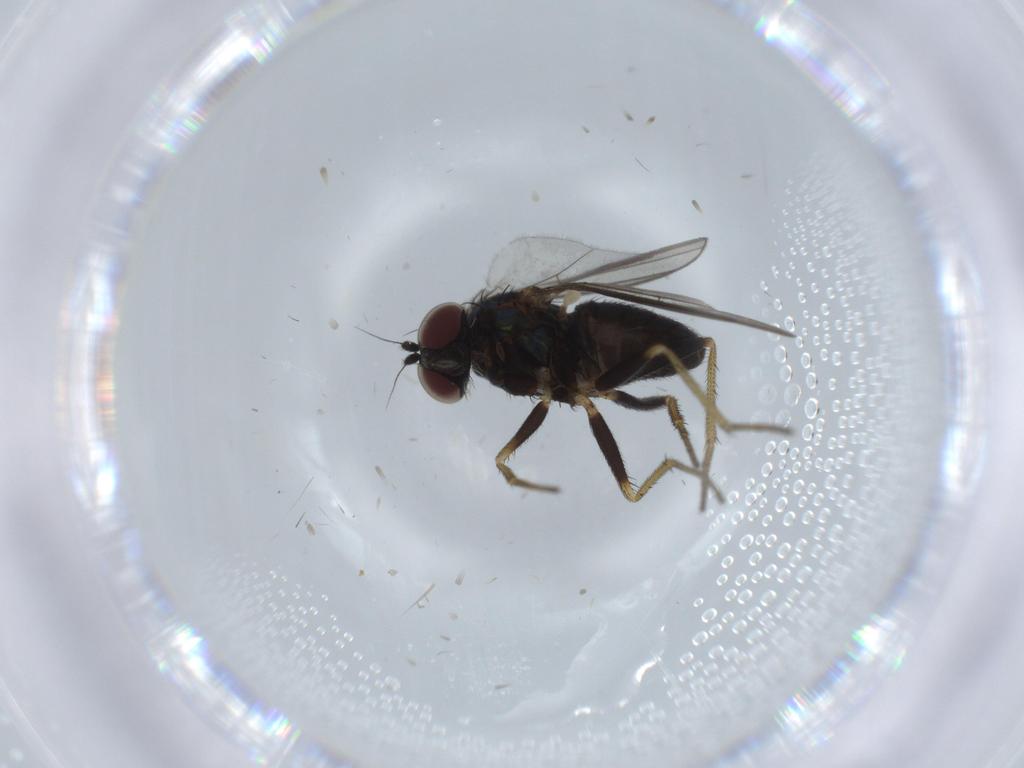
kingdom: Animalia
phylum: Arthropoda
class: Insecta
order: Diptera
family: Dolichopodidae
